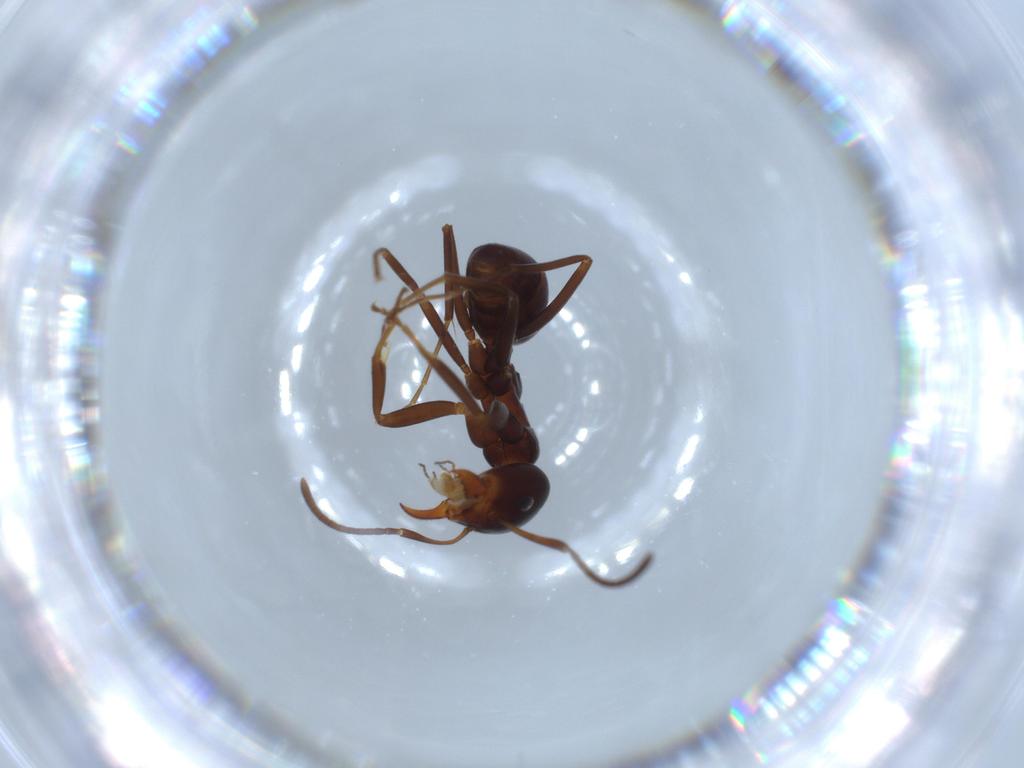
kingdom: Animalia
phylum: Arthropoda
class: Insecta
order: Hymenoptera
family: Formicidae
